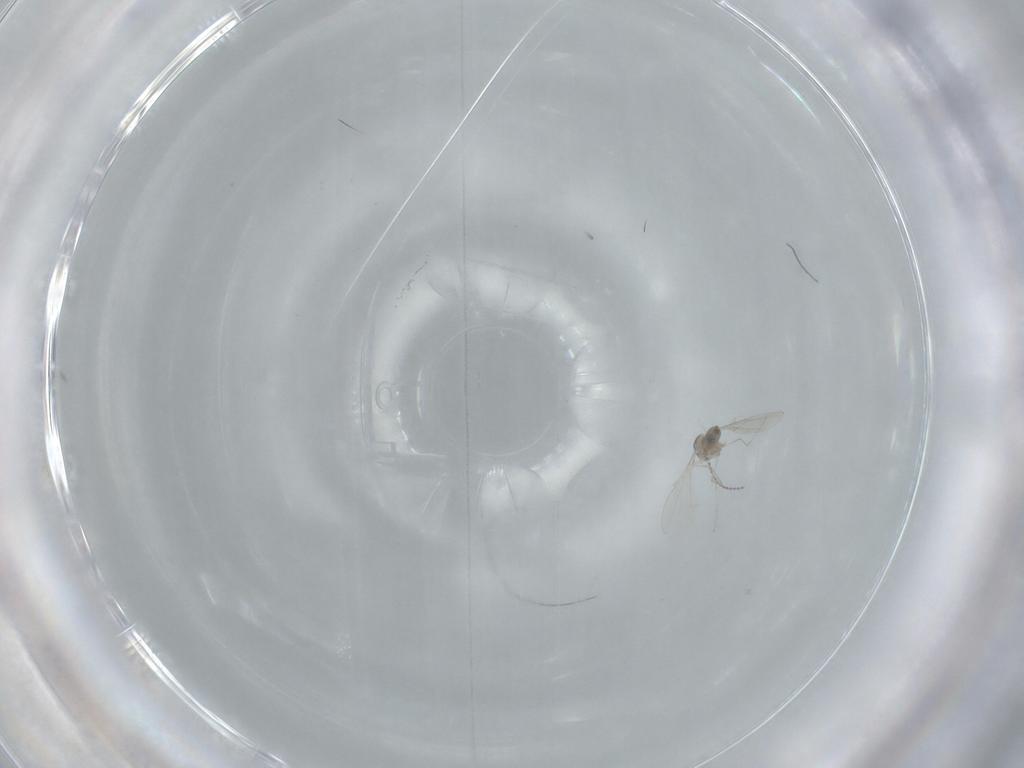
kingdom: Animalia
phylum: Arthropoda
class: Insecta
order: Diptera
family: Cecidomyiidae
